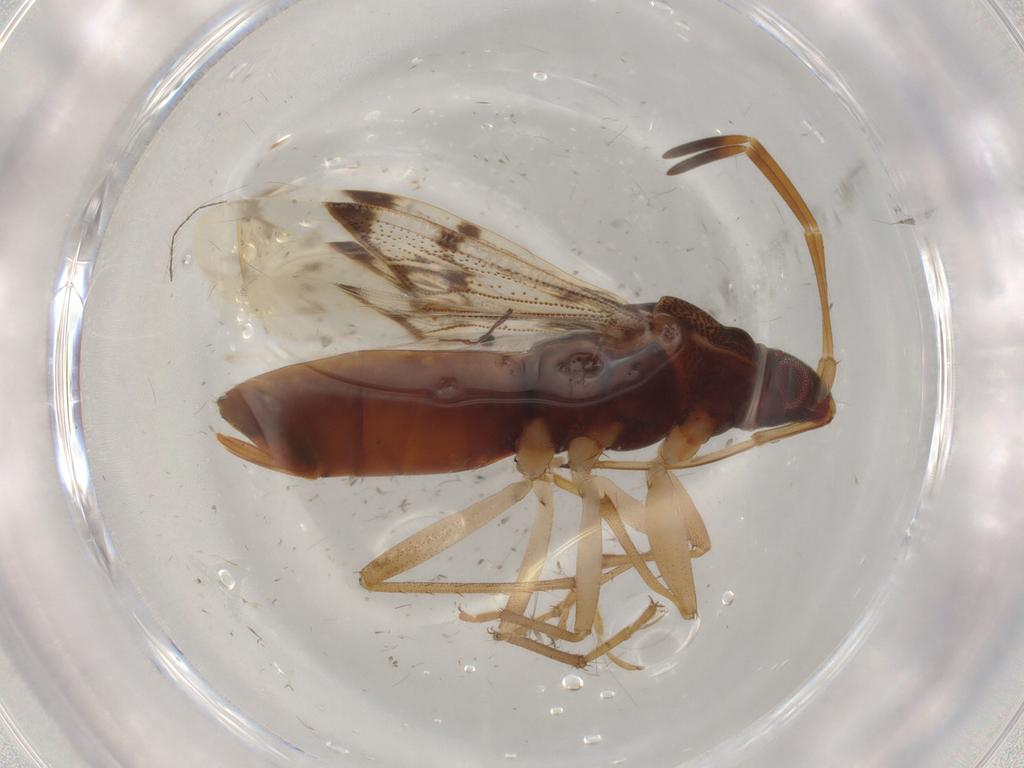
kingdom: Animalia
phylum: Arthropoda
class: Insecta
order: Hemiptera
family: Rhyparochromidae
